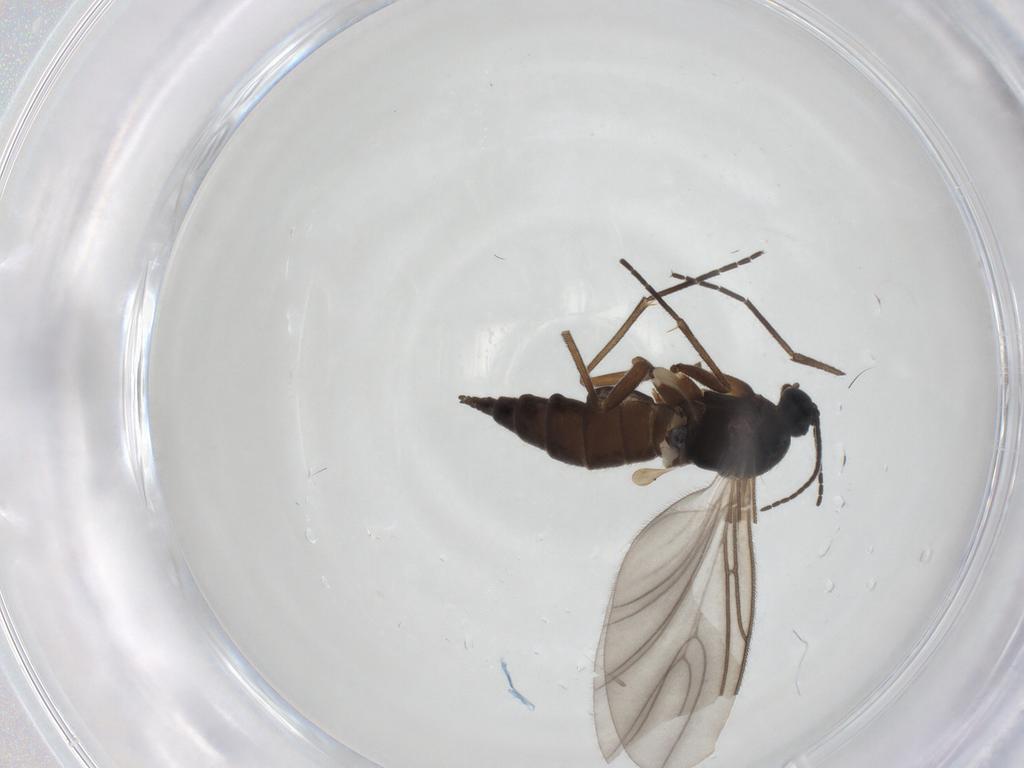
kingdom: Animalia
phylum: Arthropoda
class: Insecta
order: Diptera
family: Sciaridae
